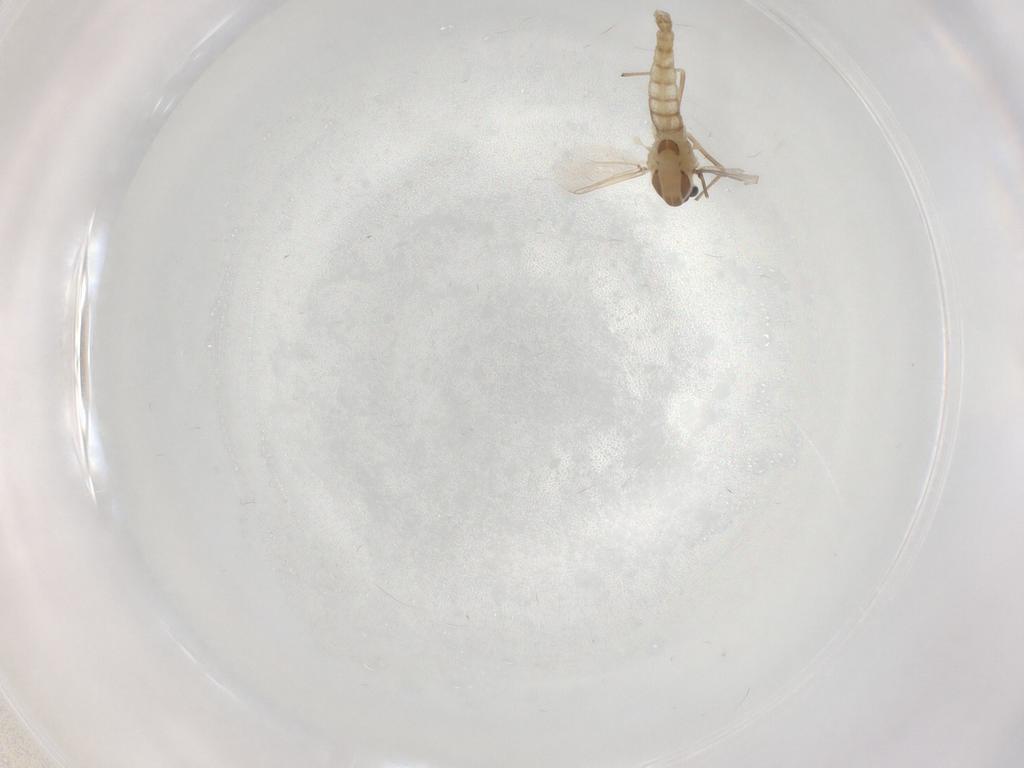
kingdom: Animalia
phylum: Arthropoda
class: Insecta
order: Diptera
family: Chironomidae
